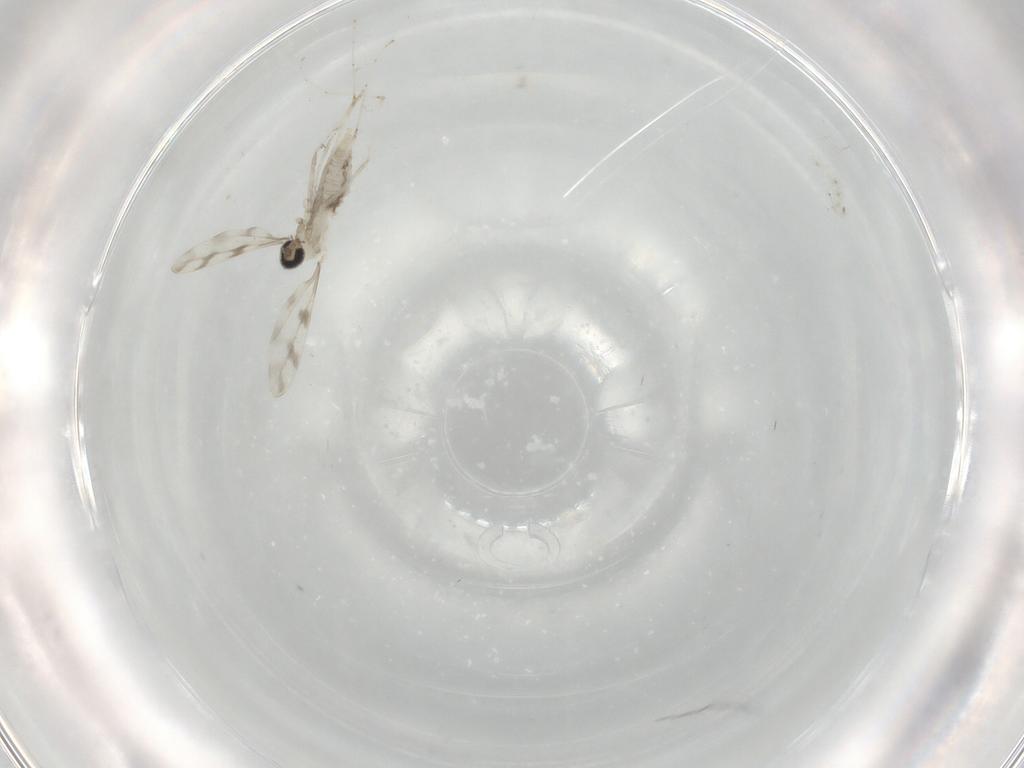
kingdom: Animalia
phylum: Arthropoda
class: Insecta
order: Diptera
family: Cecidomyiidae
